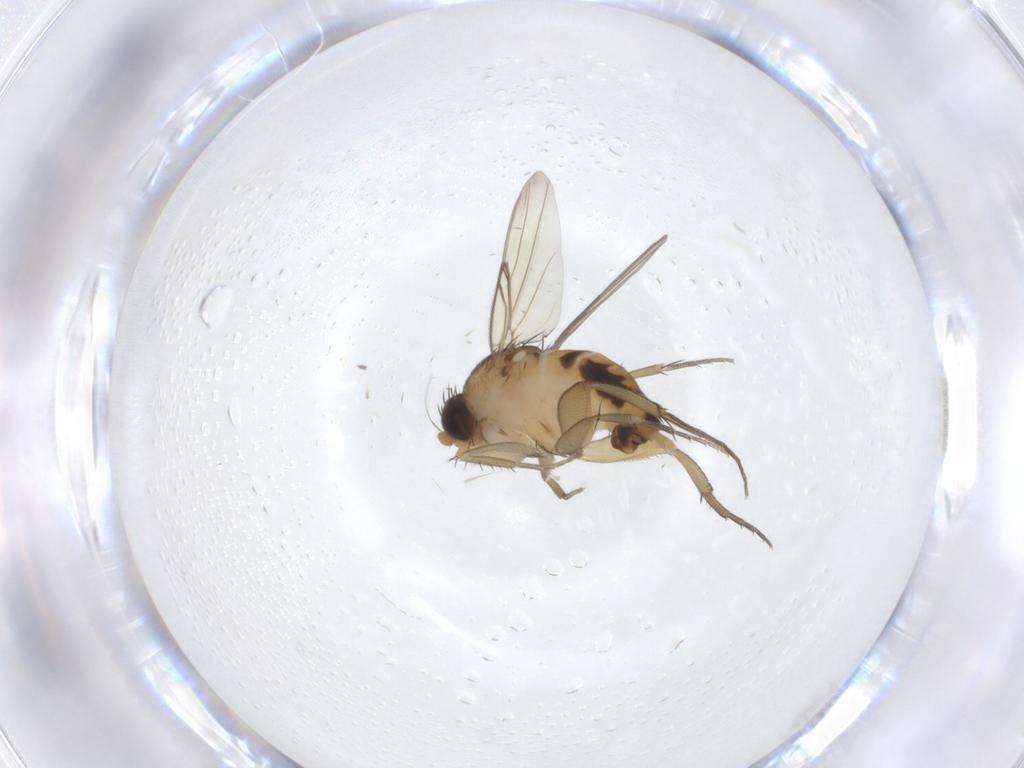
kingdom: Animalia
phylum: Arthropoda
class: Insecta
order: Diptera
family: Phoridae
